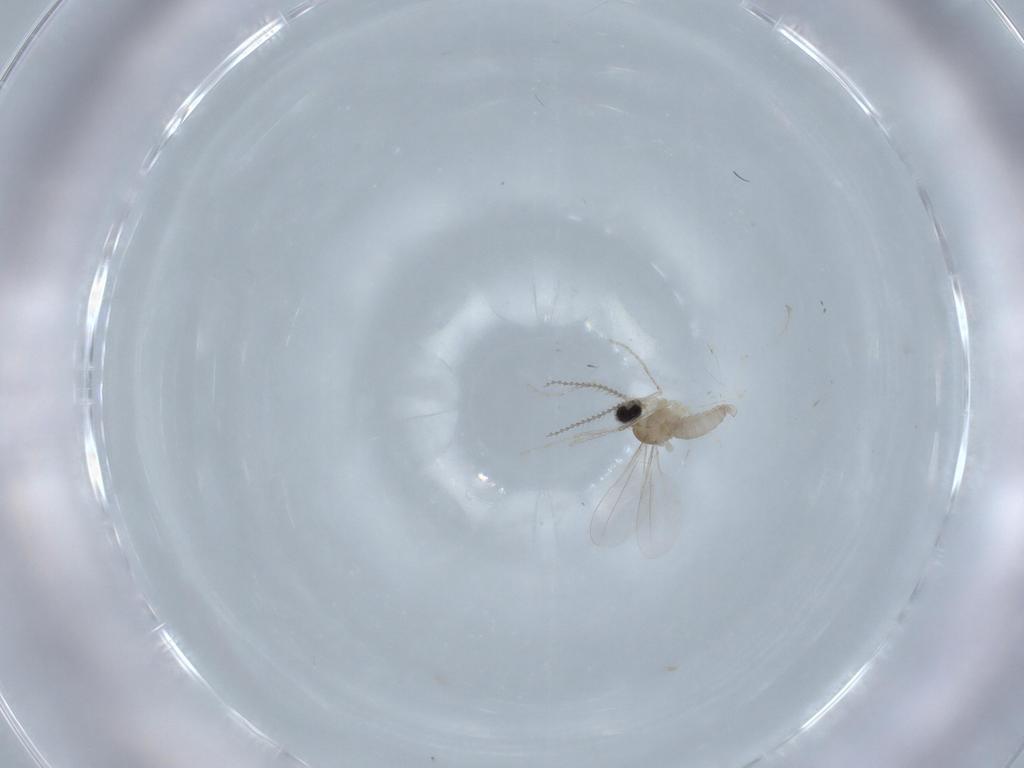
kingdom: Animalia
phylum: Arthropoda
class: Insecta
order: Diptera
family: Cecidomyiidae
